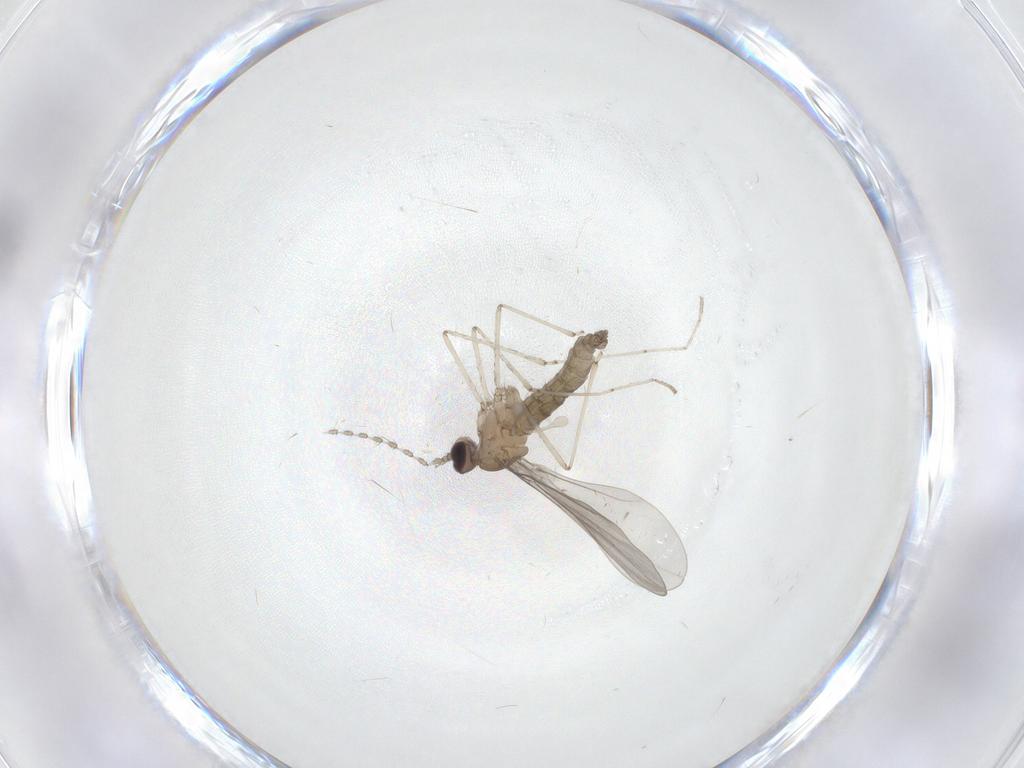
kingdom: Animalia
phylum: Arthropoda
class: Insecta
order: Diptera
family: Cecidomyiidae
